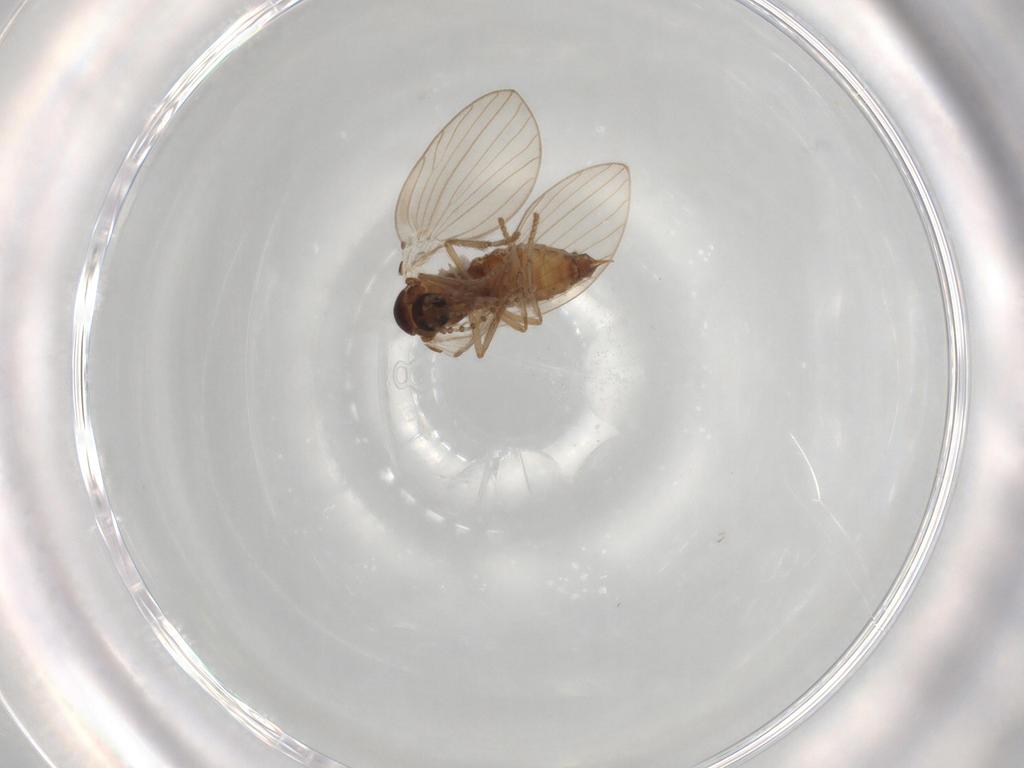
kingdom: Animalia
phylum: Arthropoda
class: Insecta
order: Diptera
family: Psychodidae
